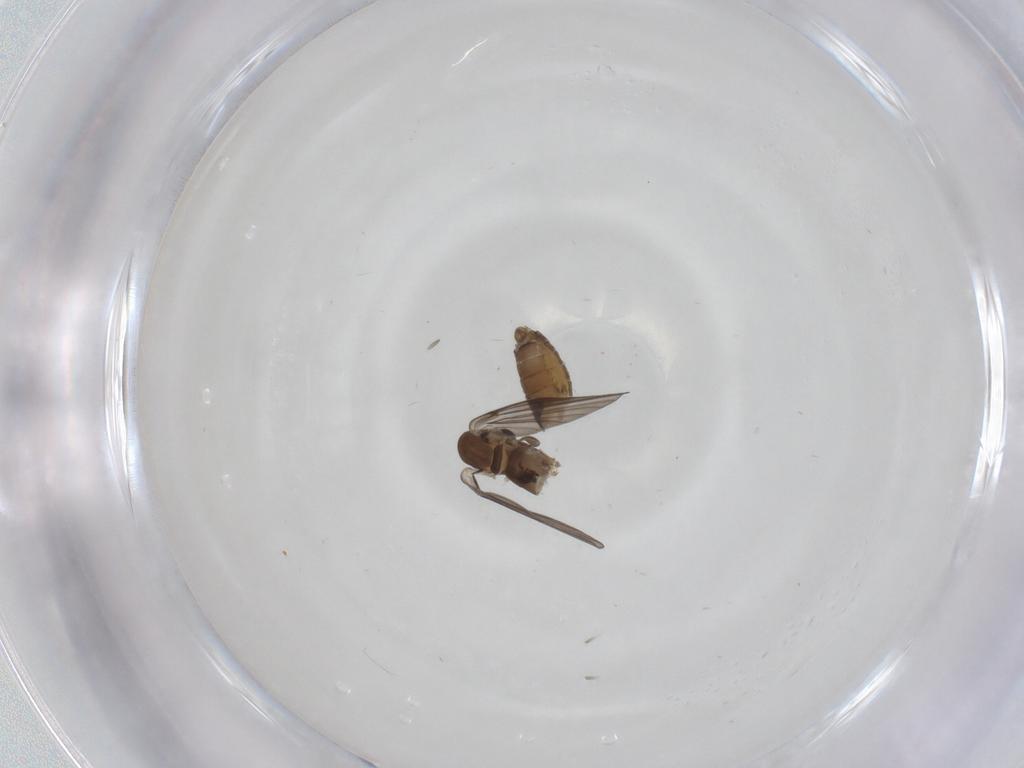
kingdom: Animalia
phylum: Arthropoda
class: Insecta
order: Diptera
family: Psychodidae
